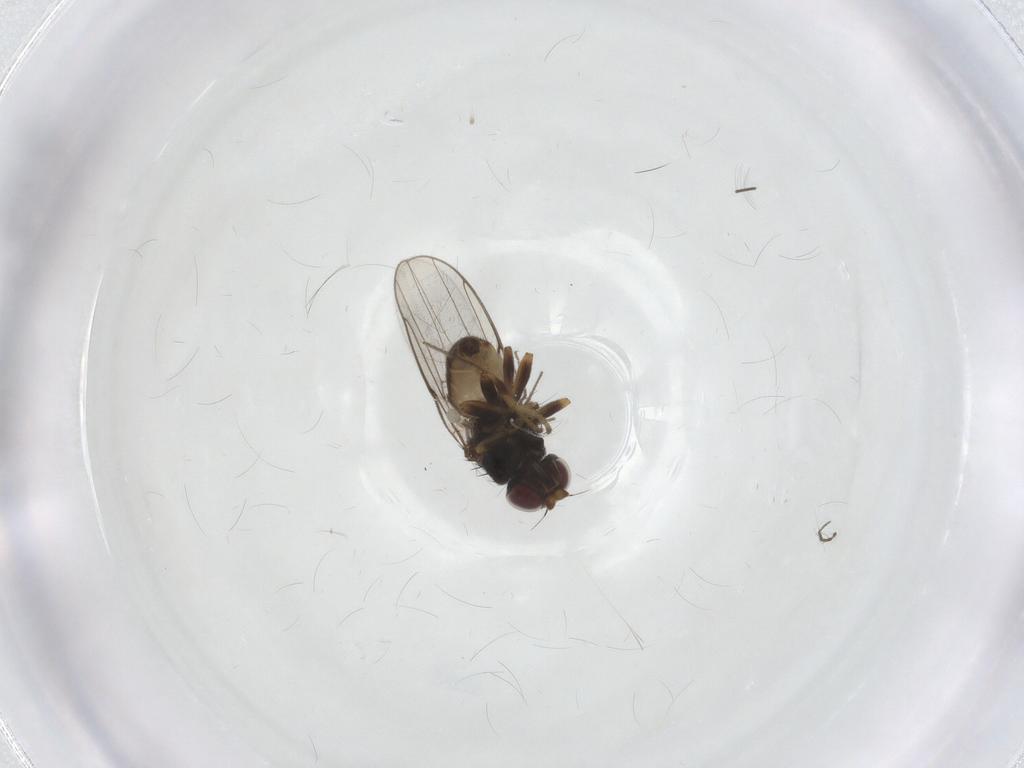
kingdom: Animalia
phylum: Arthropoda
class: Insecta
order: Diptera
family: Chloropidae
